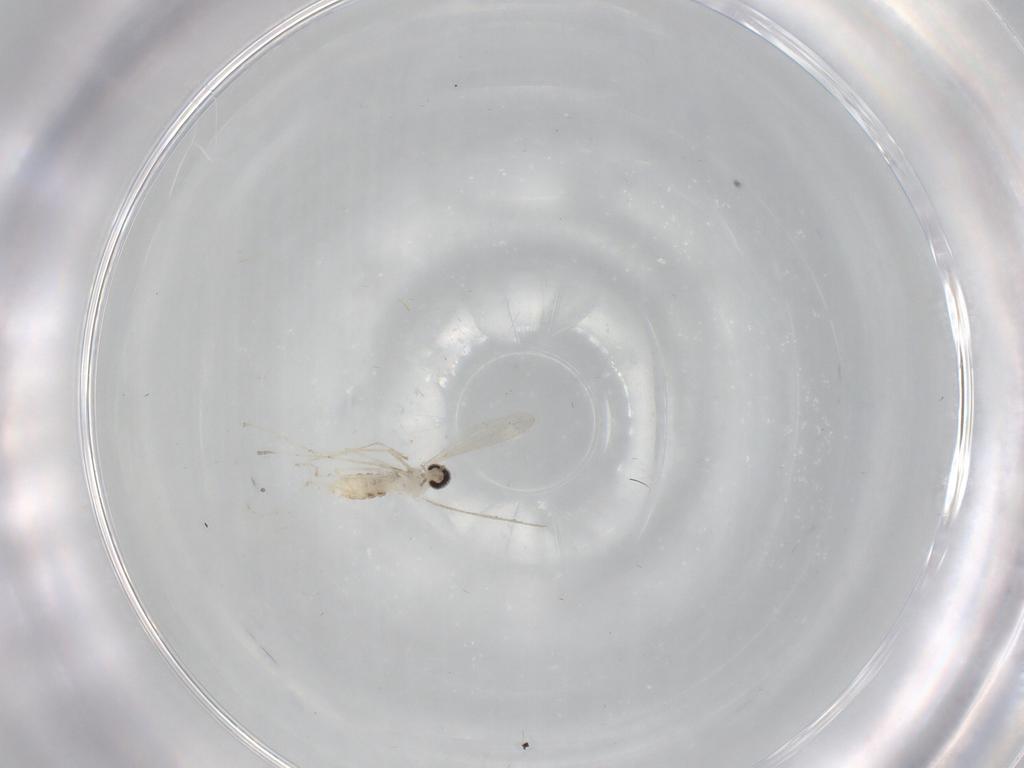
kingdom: Animalia
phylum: Arthropoda
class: Insecta
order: Diptera
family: Cecidomyiidae
